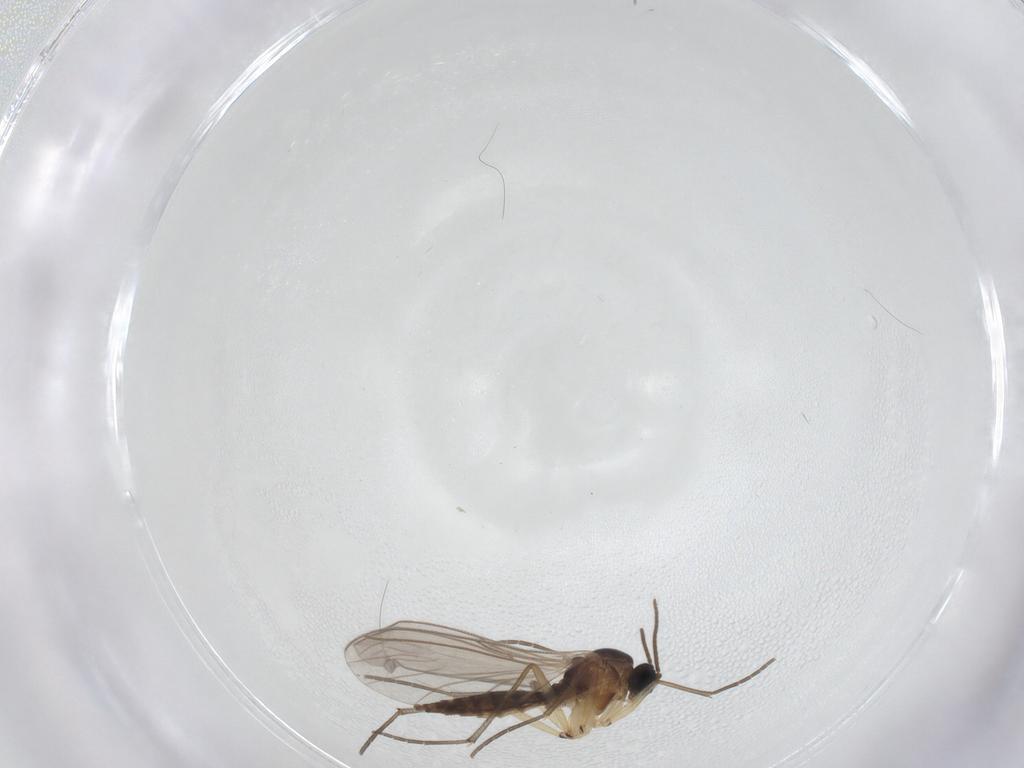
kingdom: Animalia
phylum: Arthropoda
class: Insecta
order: Diptera
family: Sciaridae
